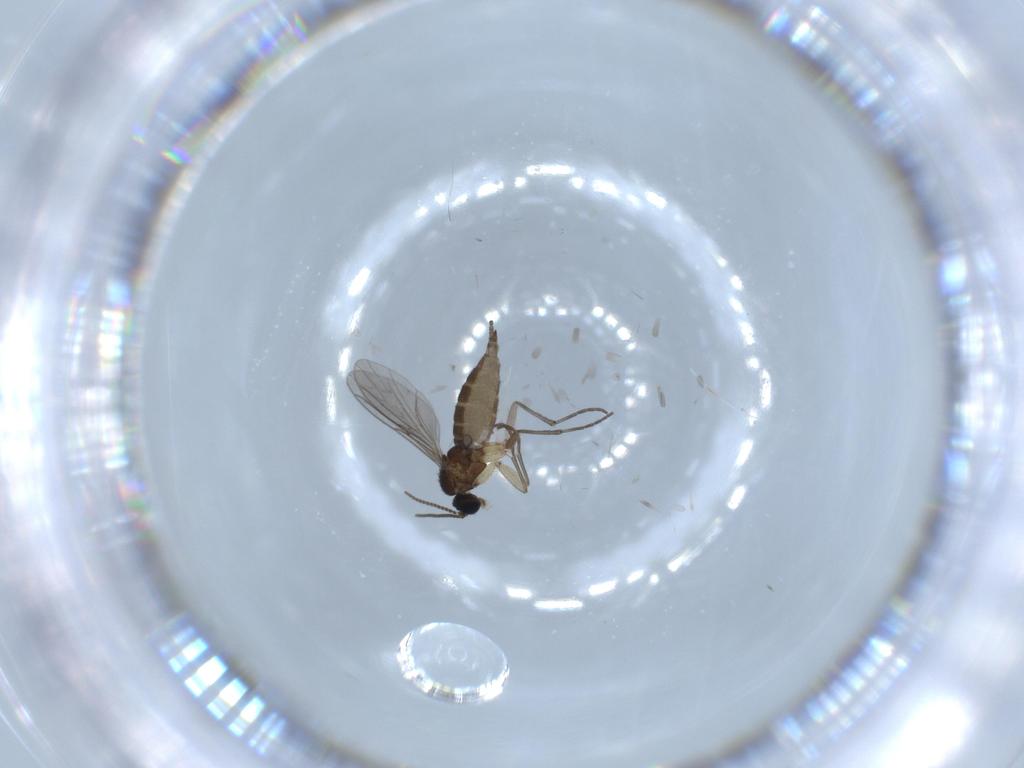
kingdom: Animalia
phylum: Arthropoda
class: Insecta
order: Diptera
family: Sciaridae
